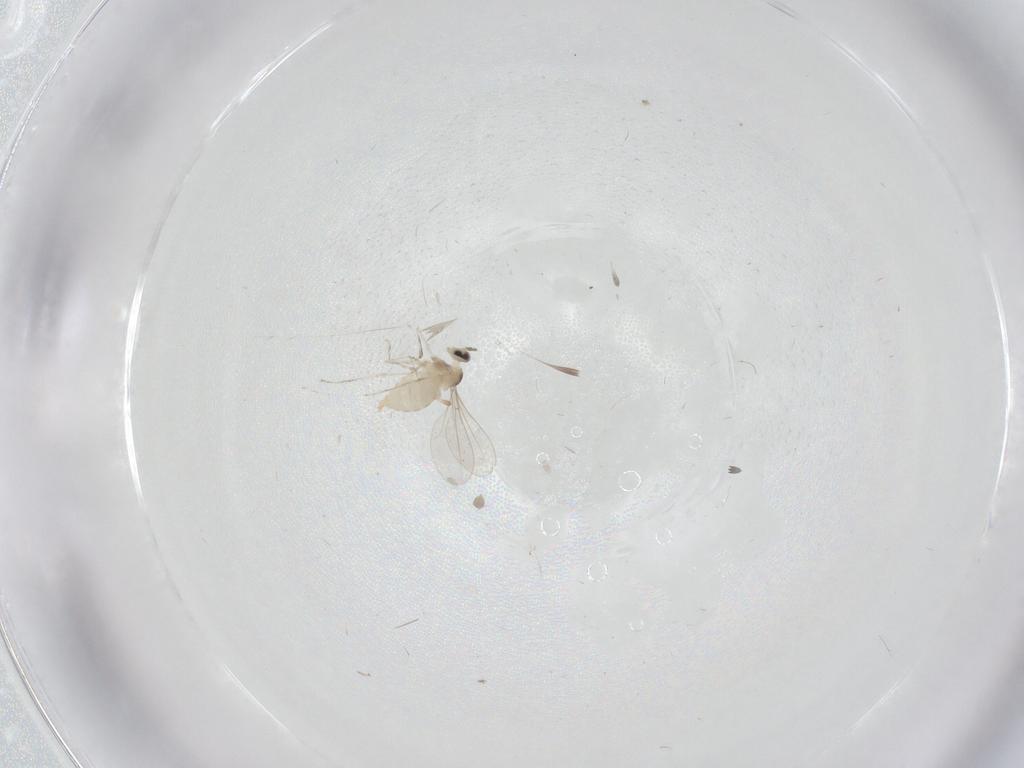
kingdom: Animalia
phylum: Arthropoda
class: Insecta
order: Diptera
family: Cecidomyiidae
